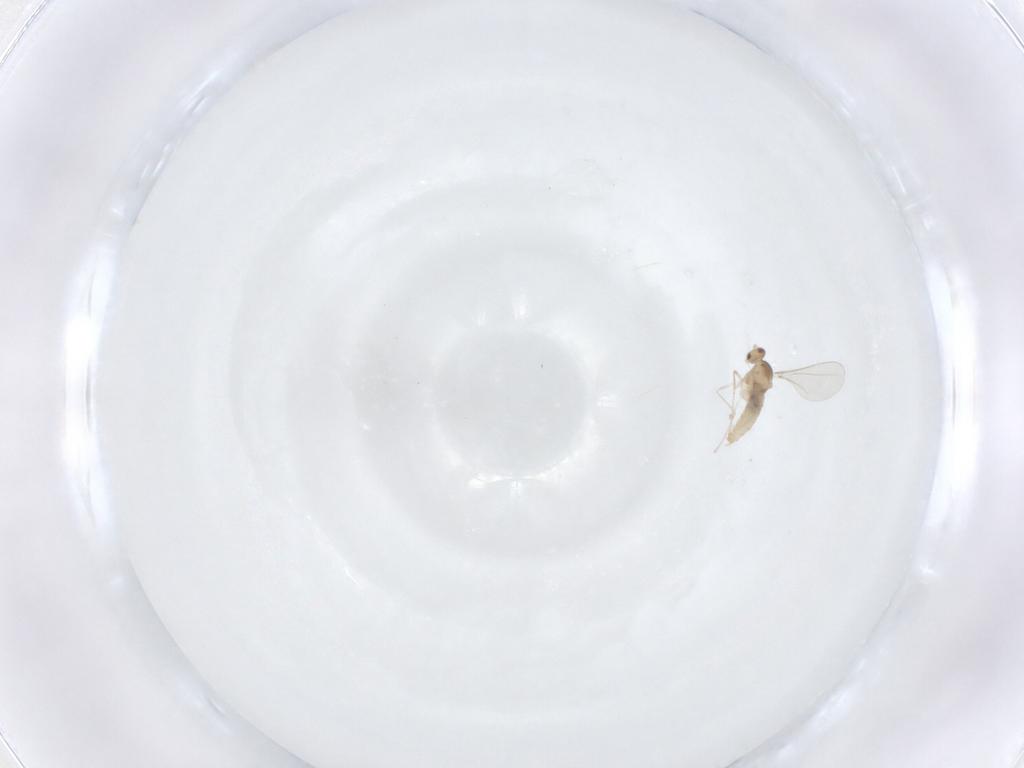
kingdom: Animalia
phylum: Arthropoda
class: Insecta
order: Diptera
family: Cecidomyiidae
